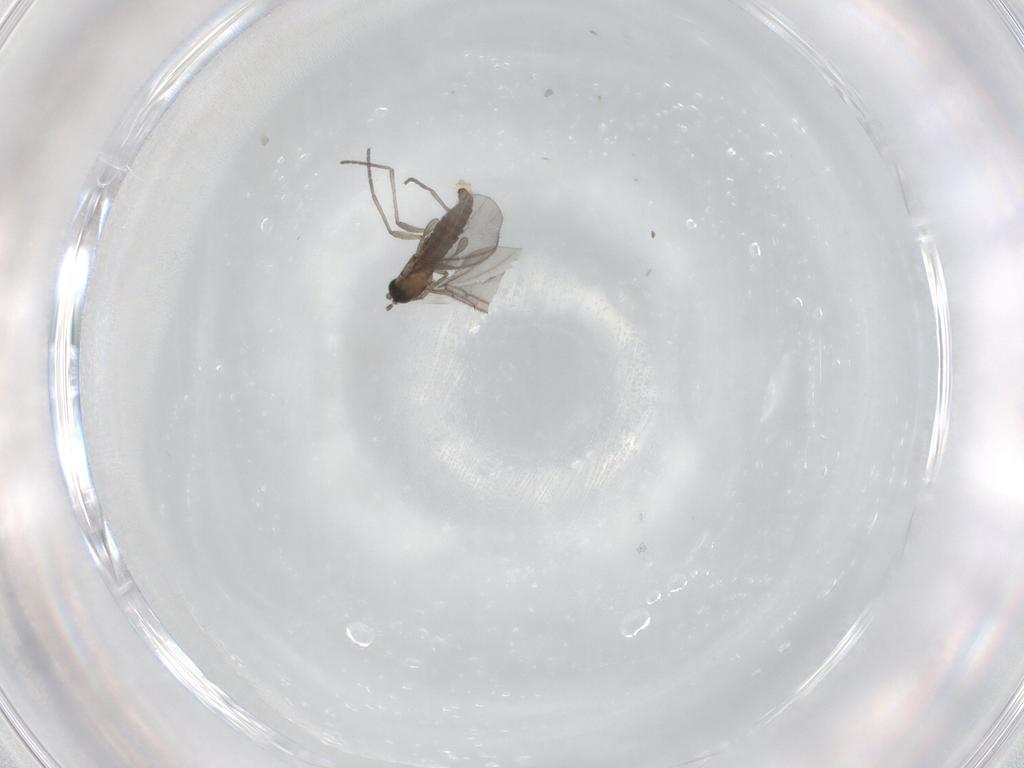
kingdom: Animalia
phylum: Arthropoda
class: Insecta
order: Diptera
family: Sciaridae
